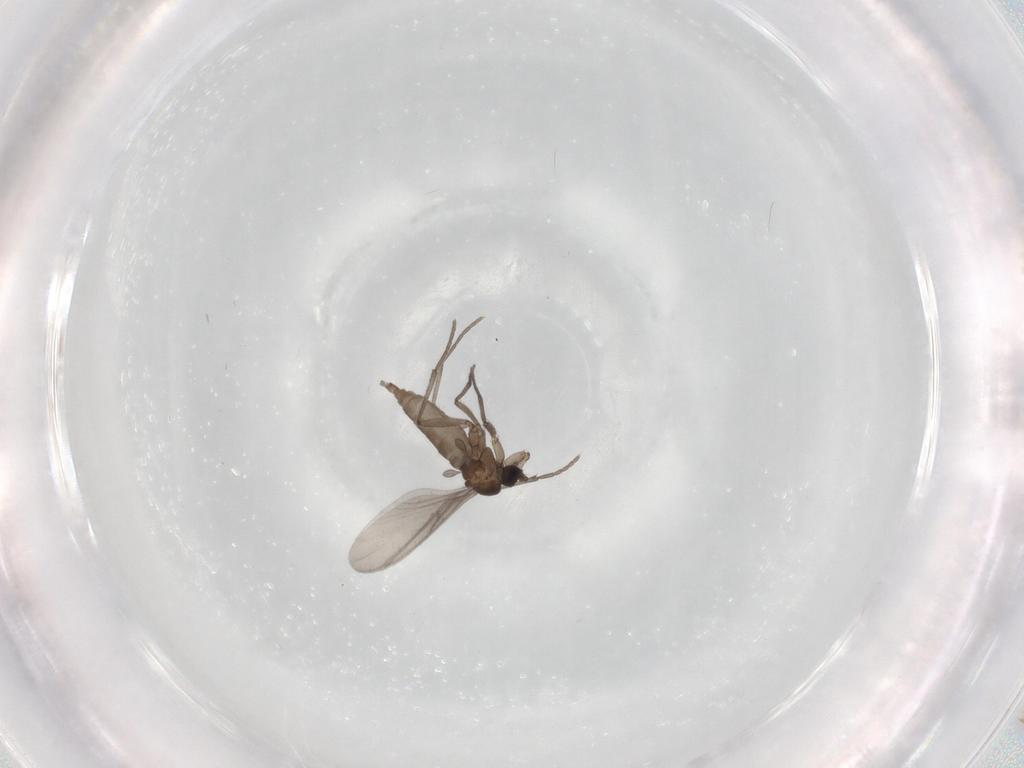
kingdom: Animalia
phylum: Arthropoda
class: Insecta
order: Diptera
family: Sciaridae
